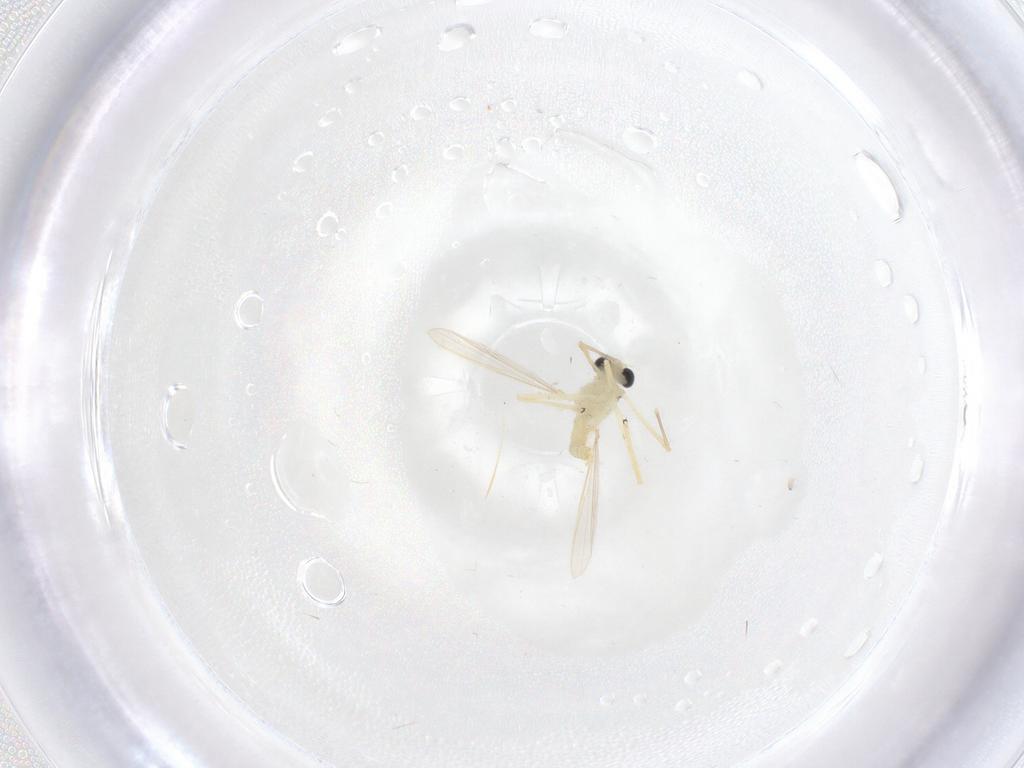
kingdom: Animalia
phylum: Arthropoda
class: Insecta
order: Diptera
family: Chironomidae
